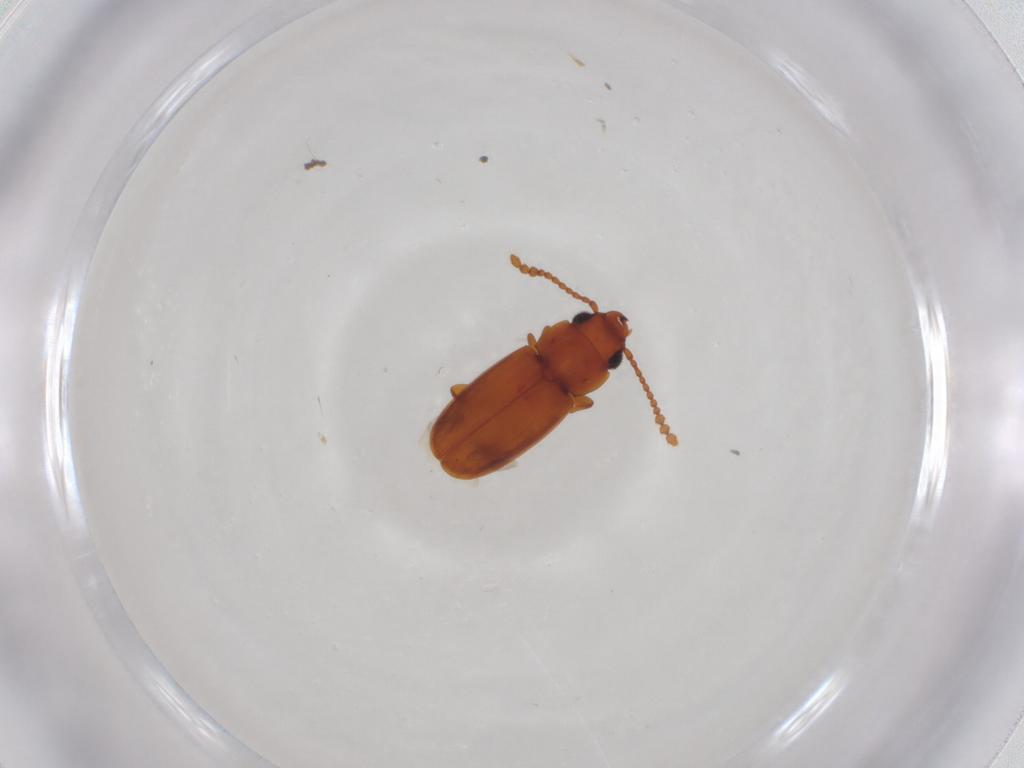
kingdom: Animalia
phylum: Arthropoda
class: Insecta
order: Coleoptera
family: Laemophloeidae
